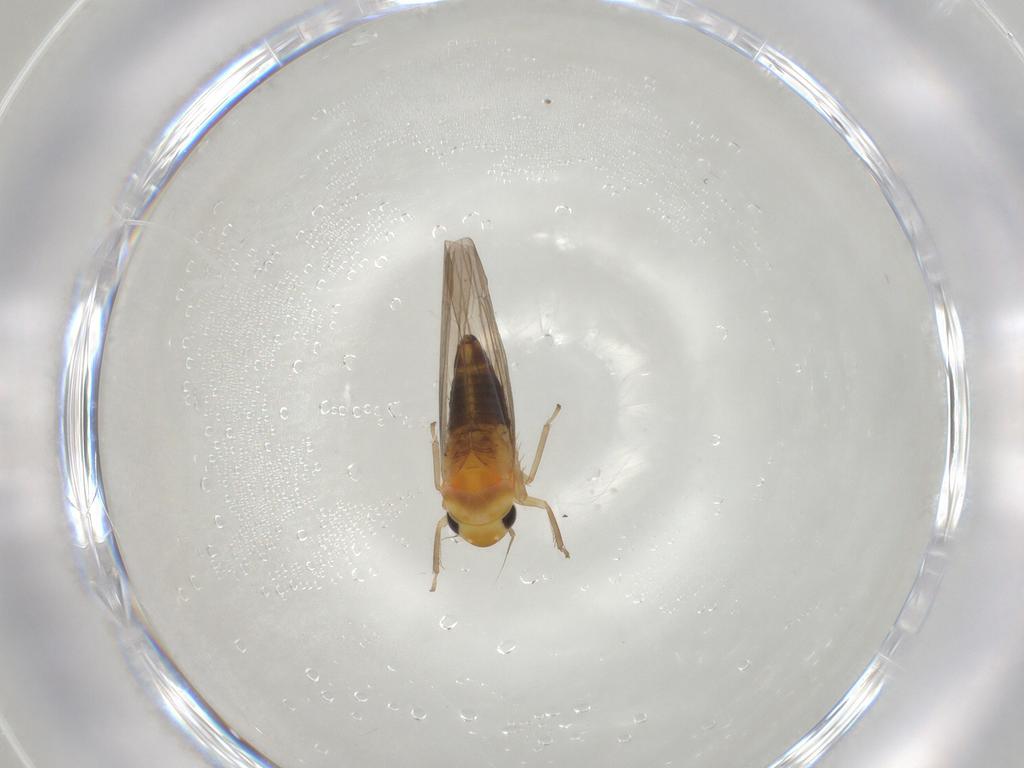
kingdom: Animalia
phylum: Arthropoda
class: Insecta
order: Hemiptera
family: Cicadellidae
